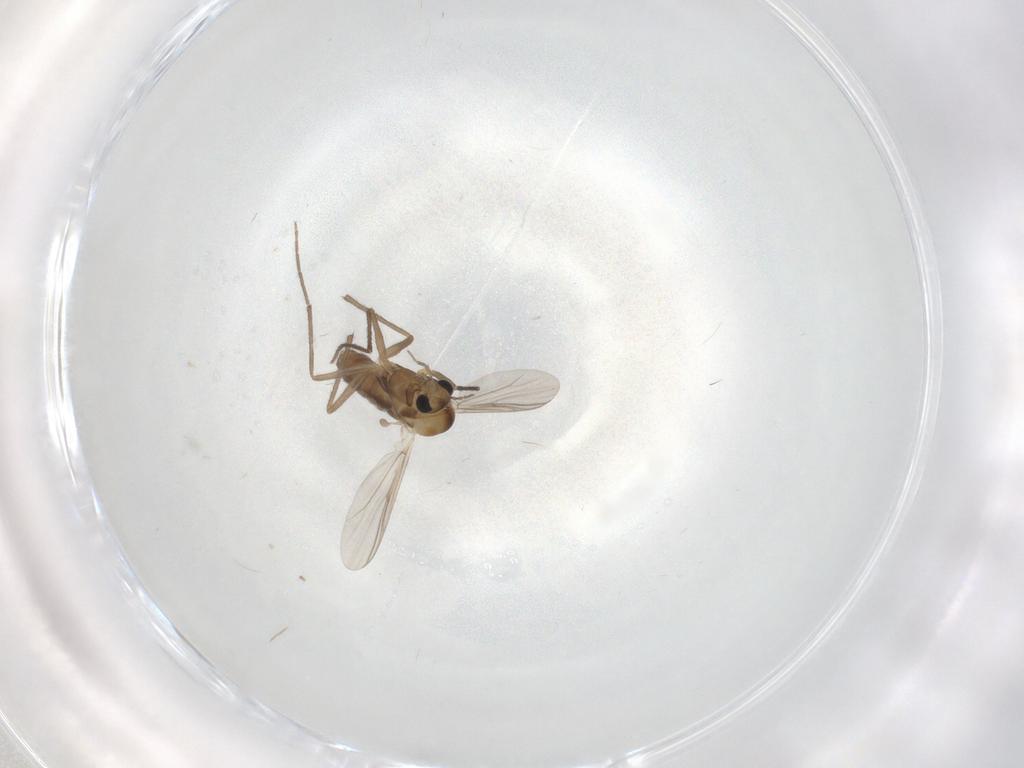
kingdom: Animalia
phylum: Arthropoda
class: Insecta
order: Diptera
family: Chironomidae
